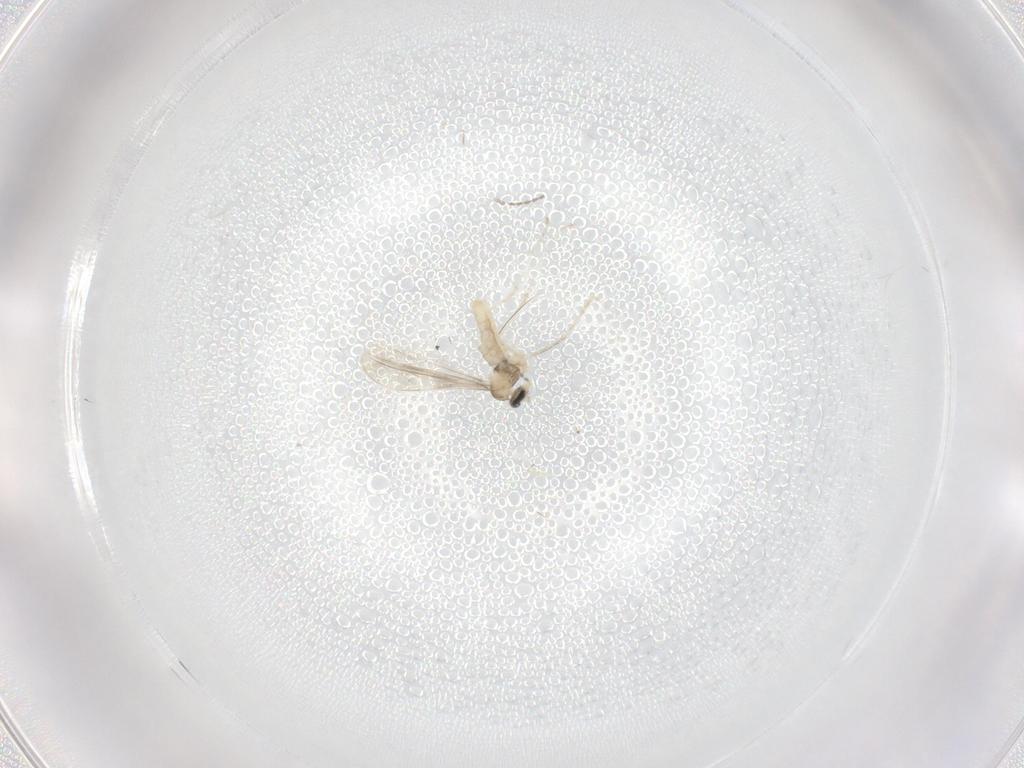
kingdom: Animalia
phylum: Arthropoda
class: Insecta
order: Diptera
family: Cecidomyiidae
